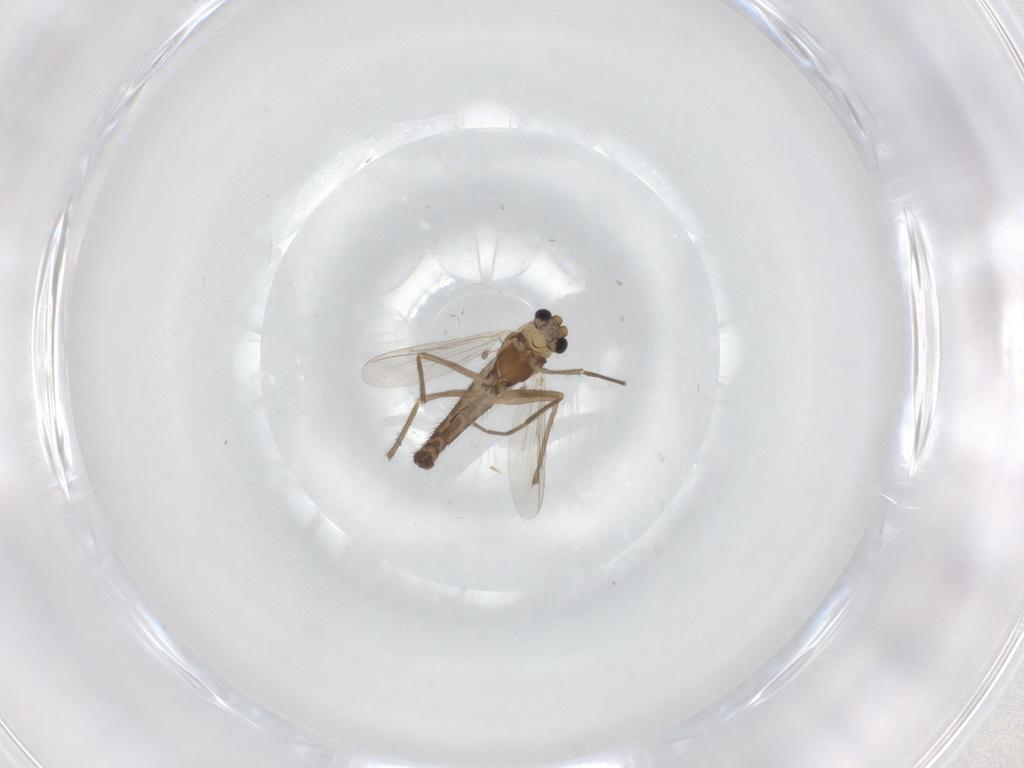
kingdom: Animalia
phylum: Arthropoda
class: Insecta
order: Diptera
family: Chironomidae
